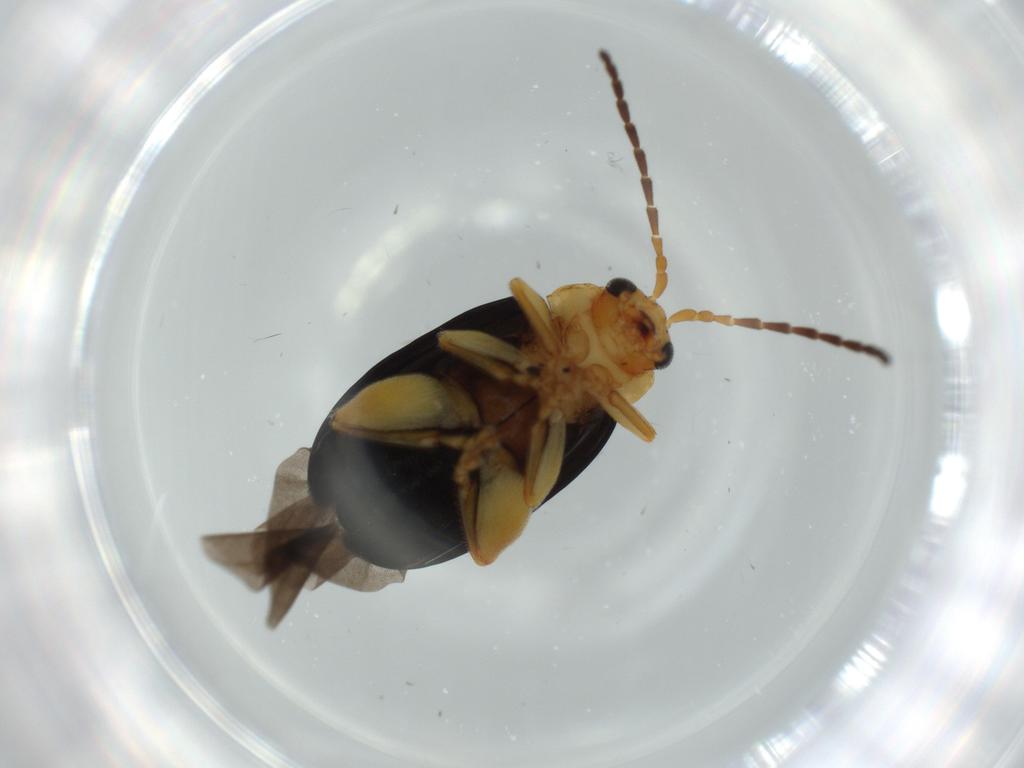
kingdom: Animalia
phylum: Arthropoda
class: Insecta
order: Coleoptera
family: Chrysomelidae
